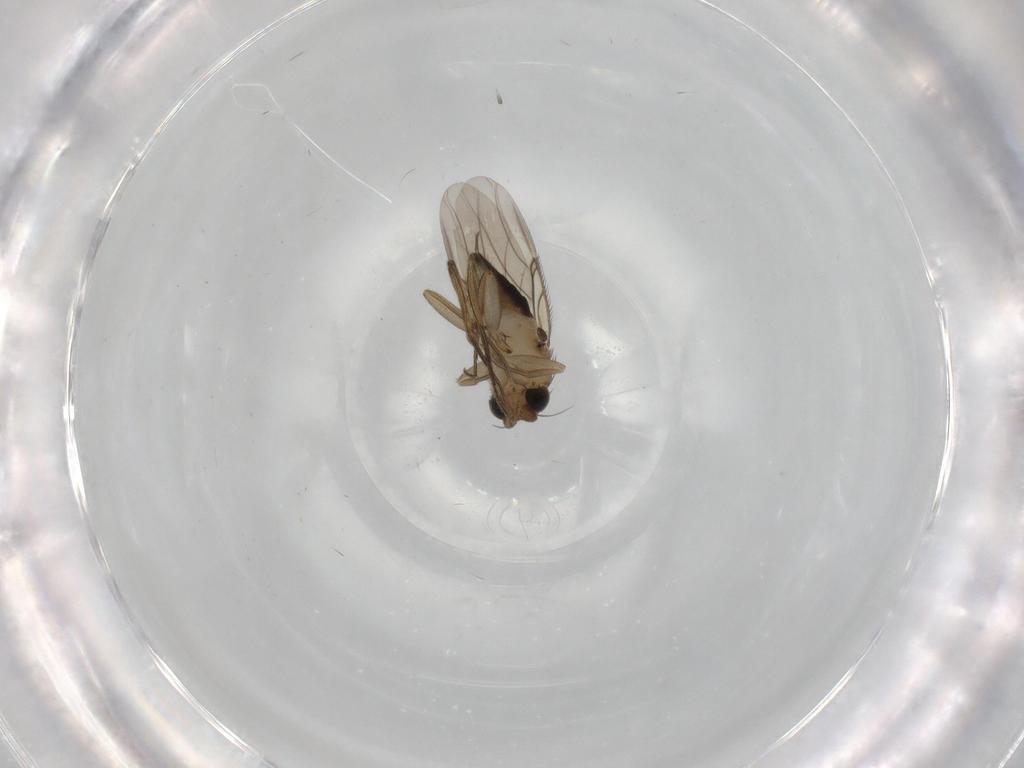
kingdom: Animalia
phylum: Arthropoda
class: Insecta
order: Diptera
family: Phoridae
